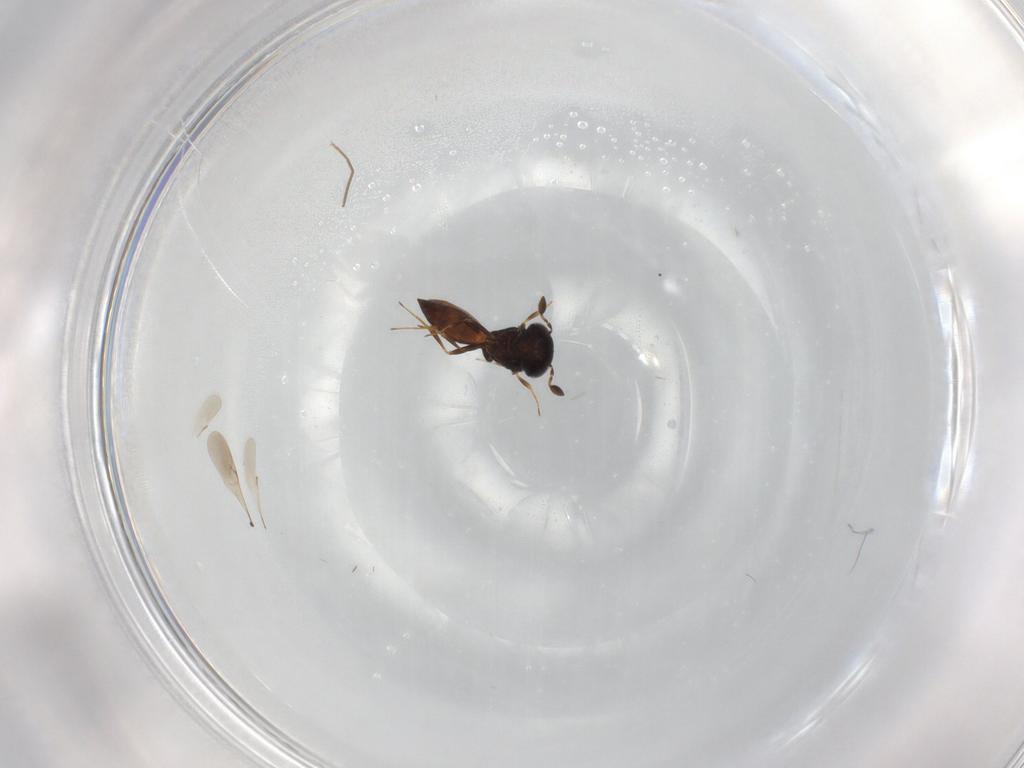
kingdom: Animalia
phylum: Arthropoda
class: Insecta
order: Hymenoptera
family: Scelionidae
